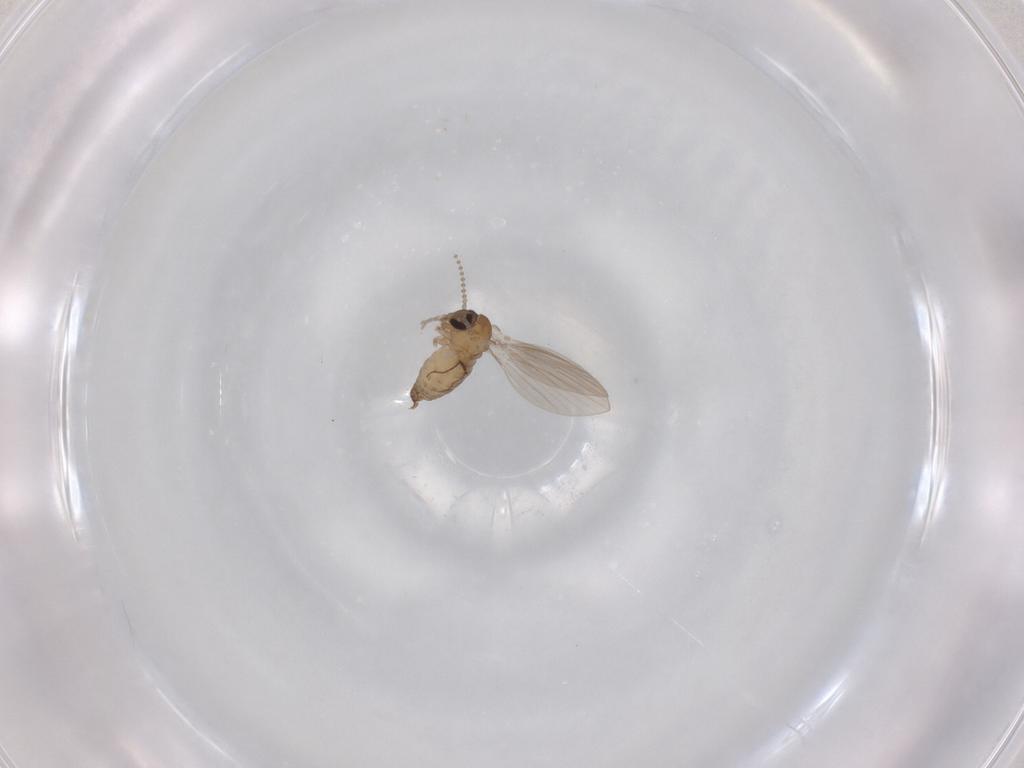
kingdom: Animalia
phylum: Arthropoda
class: Insecta
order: Diptera
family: Psychodidae
